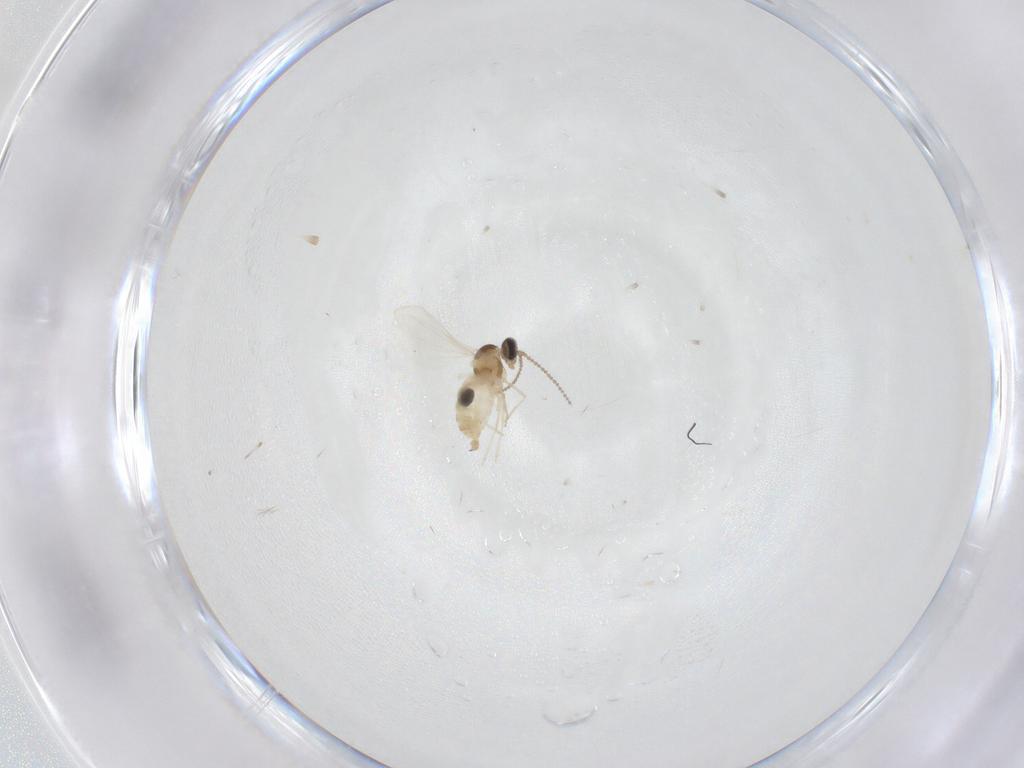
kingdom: Animalia
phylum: Arthropoda
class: Insecta
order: Diptera
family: Cecidomyiidae
